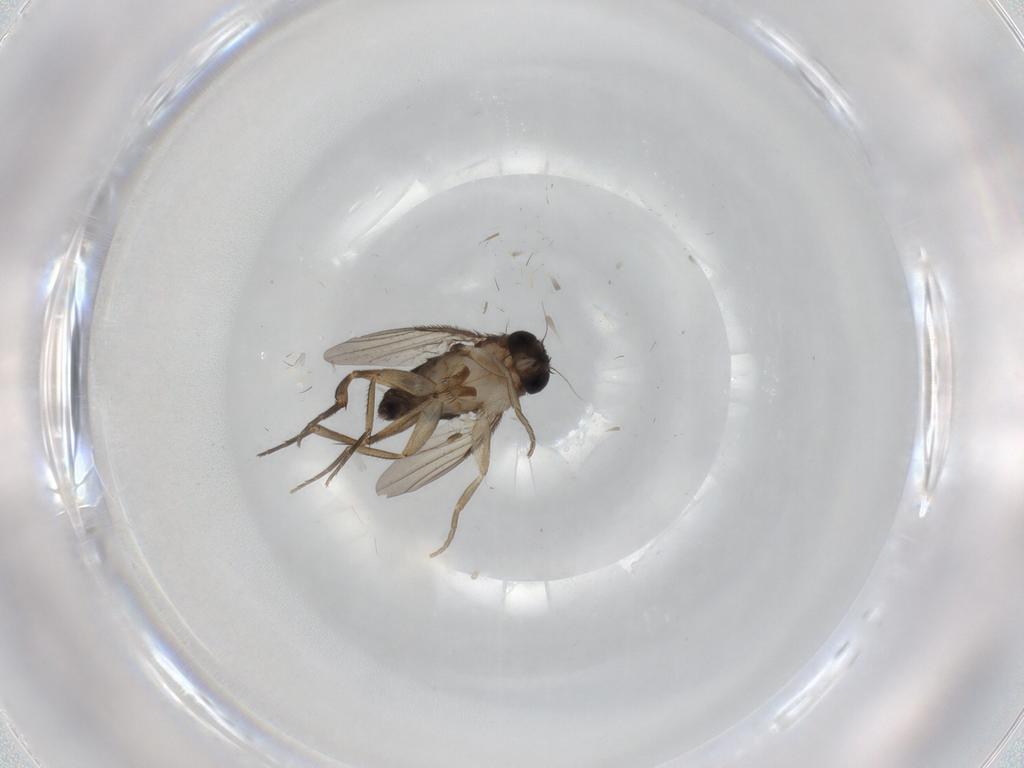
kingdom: Animalia
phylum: Arthropoda
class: Insecta
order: Diptera
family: Phoridae
